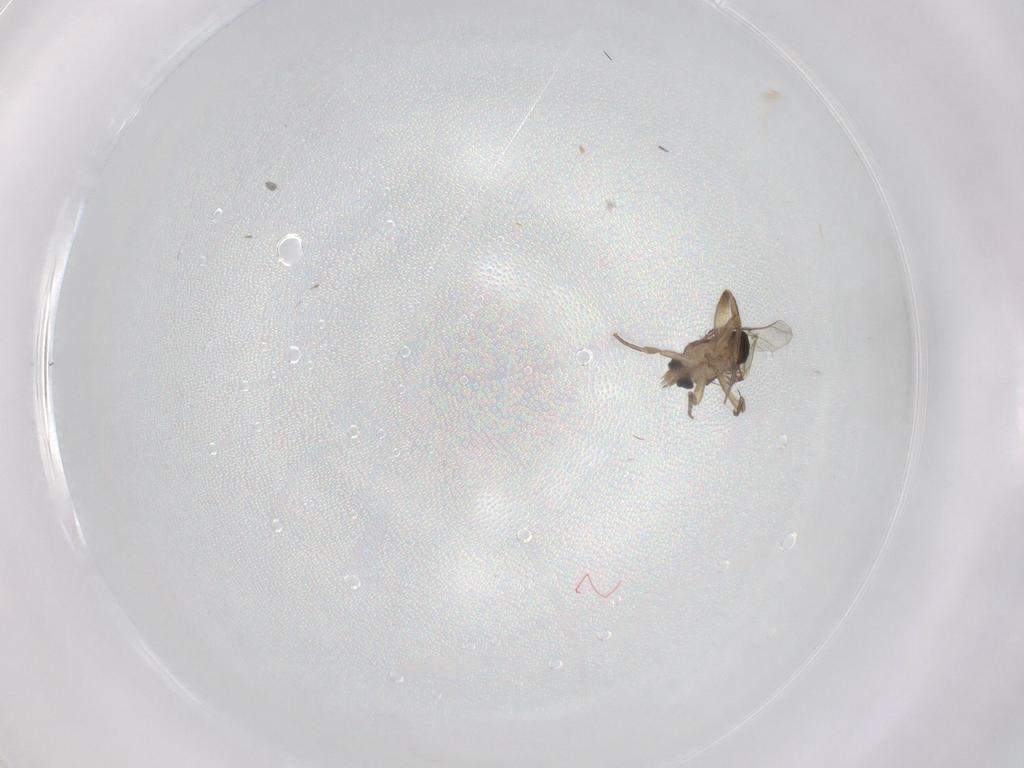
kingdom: Animalia
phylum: Arthropoda
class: Insecta
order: Diptera
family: Phoridae
